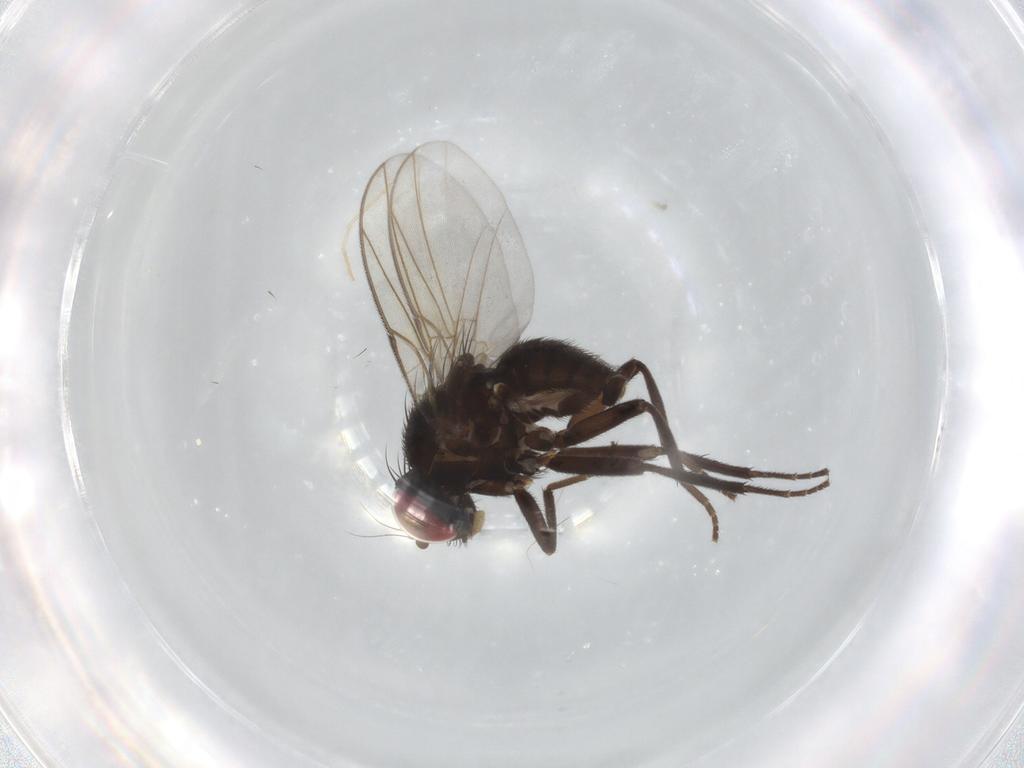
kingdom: Animalia
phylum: Arthropoda
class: Insecta
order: Diptera
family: Agromyzidae
